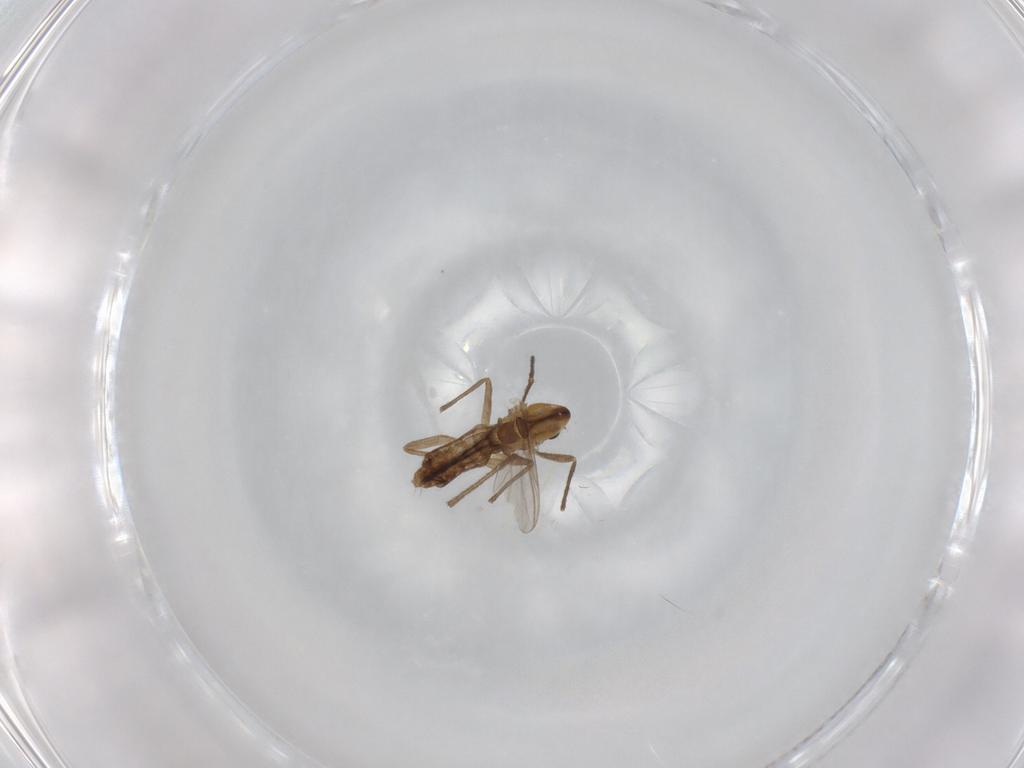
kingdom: Animalia
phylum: Arthropoda
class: Insecta
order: Diptera
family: Chironomidae
